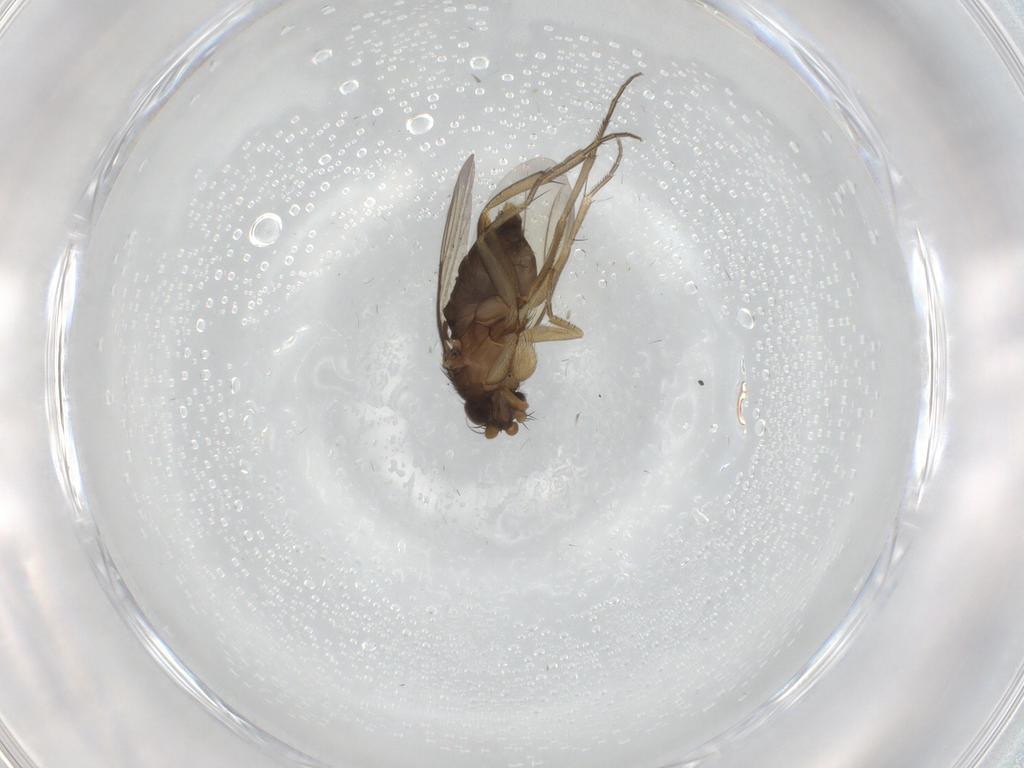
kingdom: Animalia
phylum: Arthropoda
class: Insecta
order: Diptera
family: Phoridae
